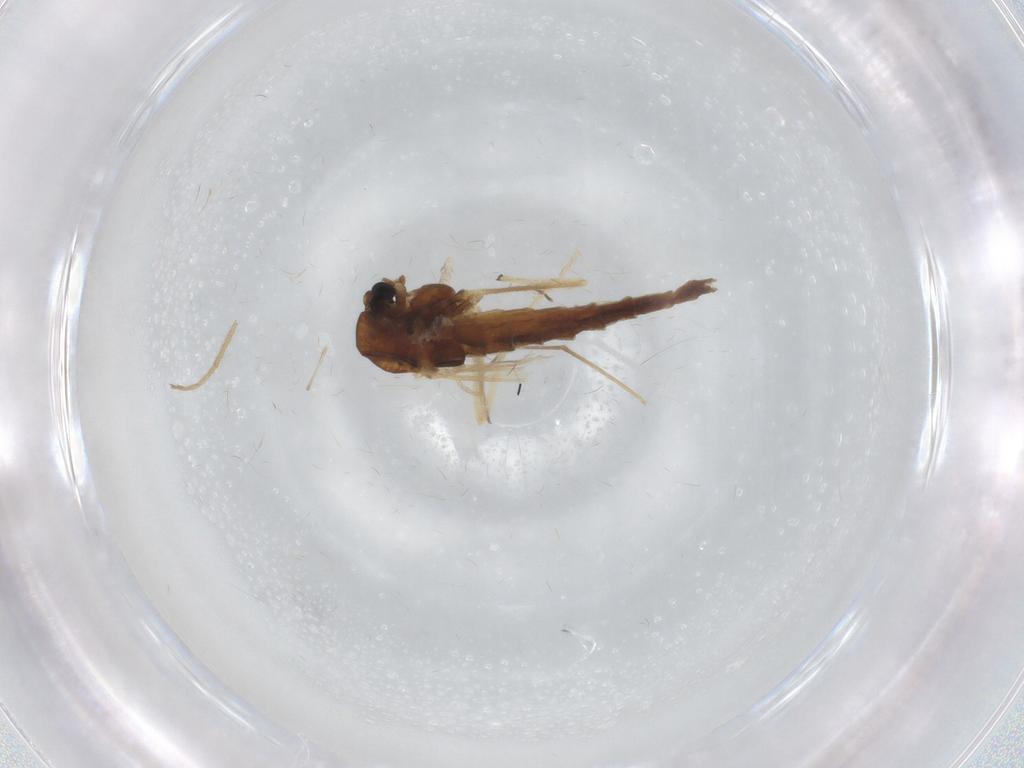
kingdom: Animalia
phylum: Arthropoda
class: Insecta
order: Diptera
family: Chironomidae
